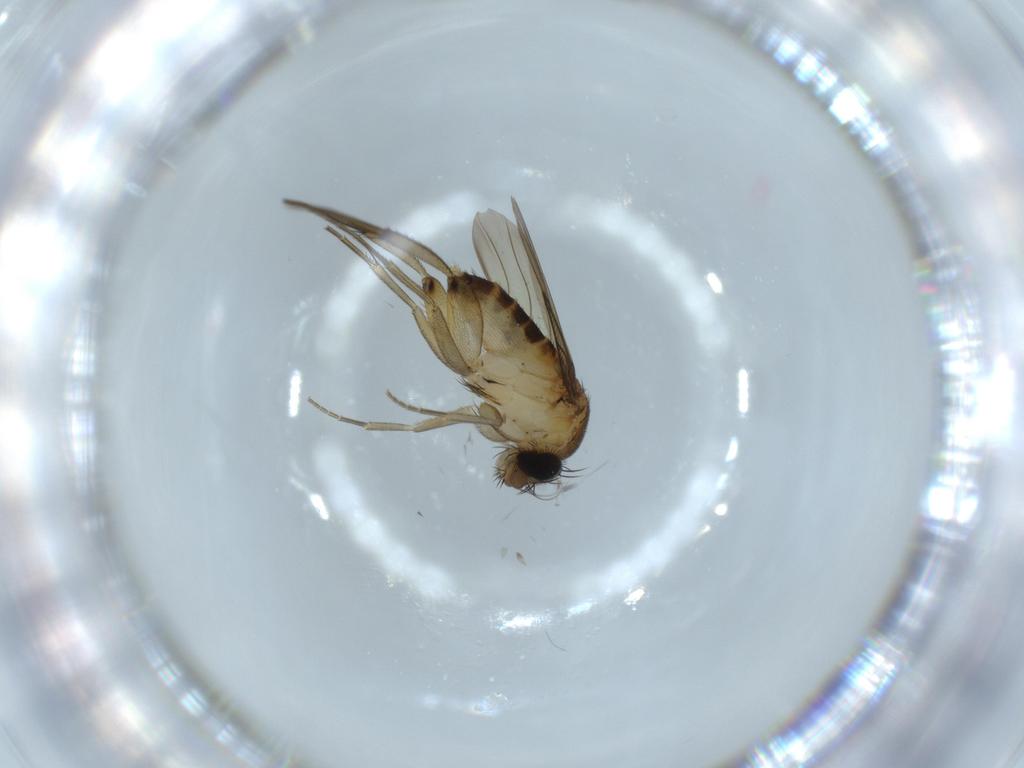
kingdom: Animalia
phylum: Arthropoda
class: Insecta
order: Diptera
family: Phoridae
